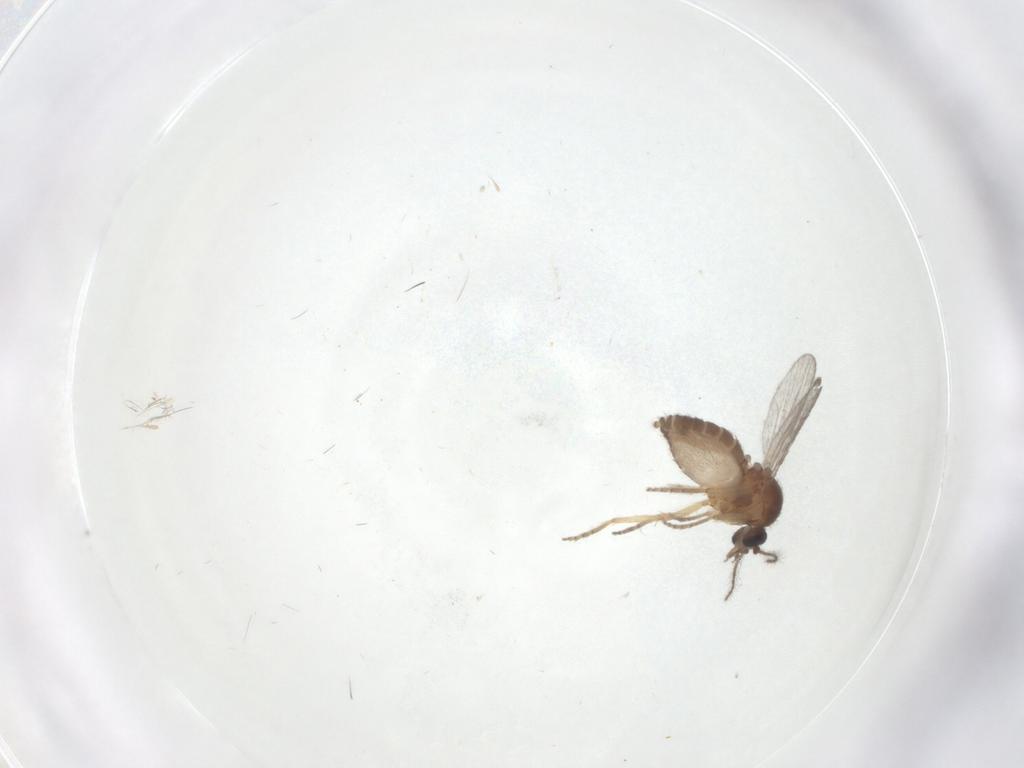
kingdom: Animalia
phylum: Arthropoda
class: Insecta
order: Diptera
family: Ceratopogonidae
